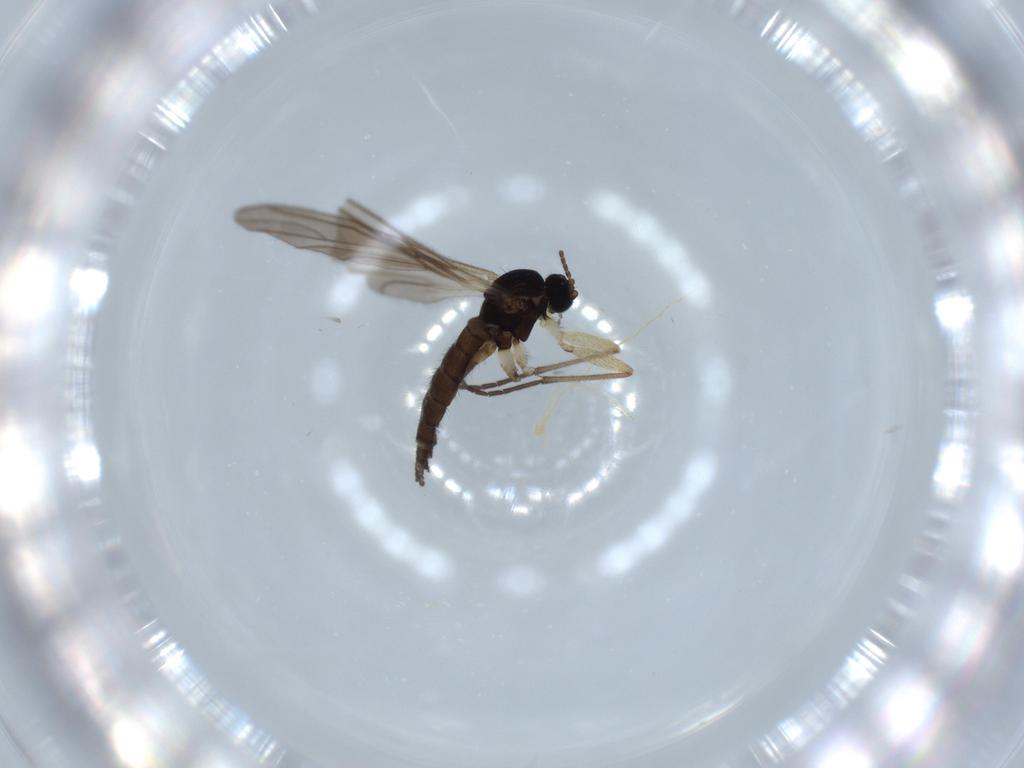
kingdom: Animalia
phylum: Arthropoda
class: Insecta
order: Diptera
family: Sciaridae
